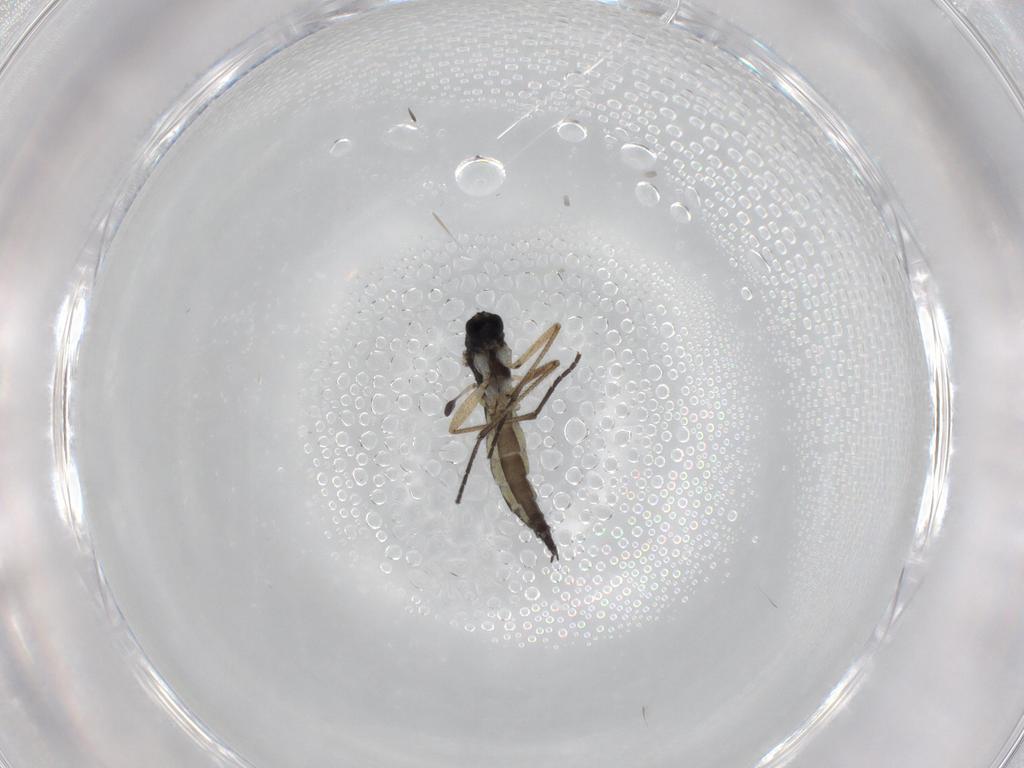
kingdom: Animalia
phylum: Arthropoda
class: Insecta
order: Diptera
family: Sciaridae
